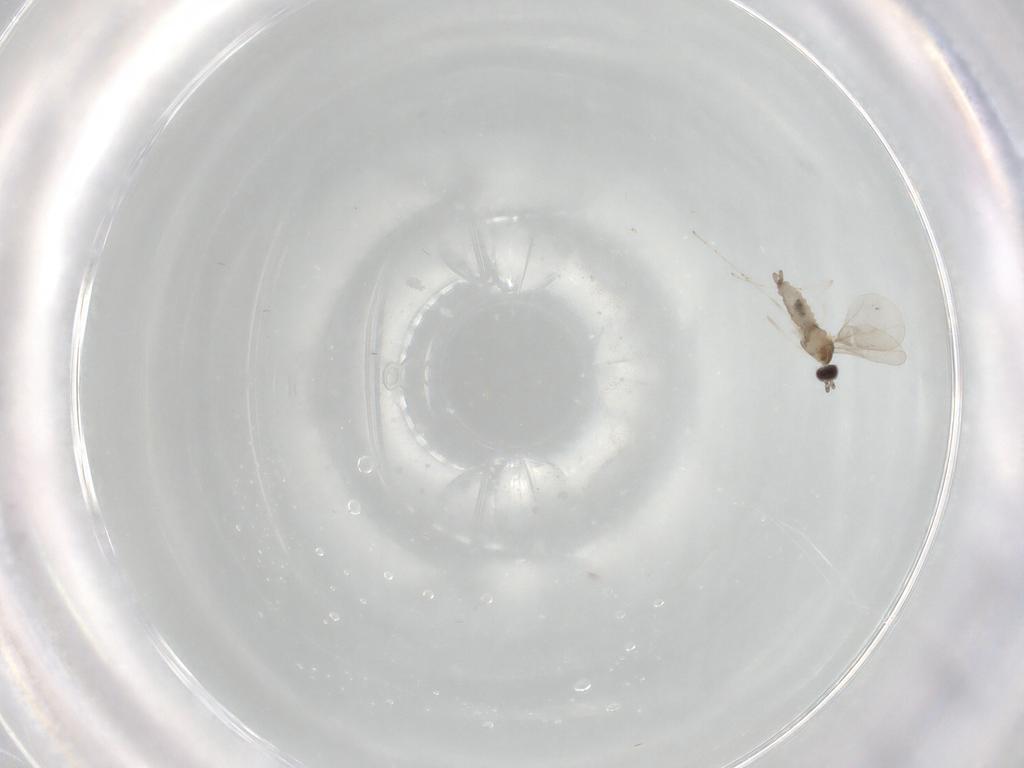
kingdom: Animalia
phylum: Arthropoda
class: Insecta
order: Diptera
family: Cecidomyiidae
